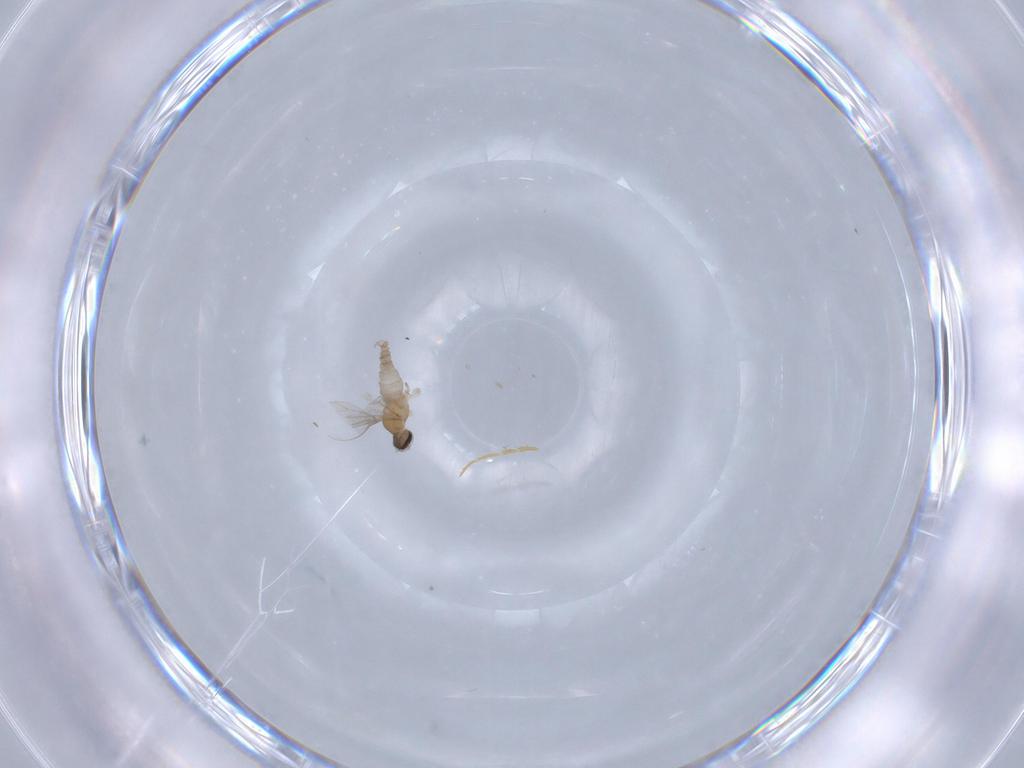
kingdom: Animalia
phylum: Arthropoda
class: Insecta
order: Diptera
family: Cecidomyiidae
